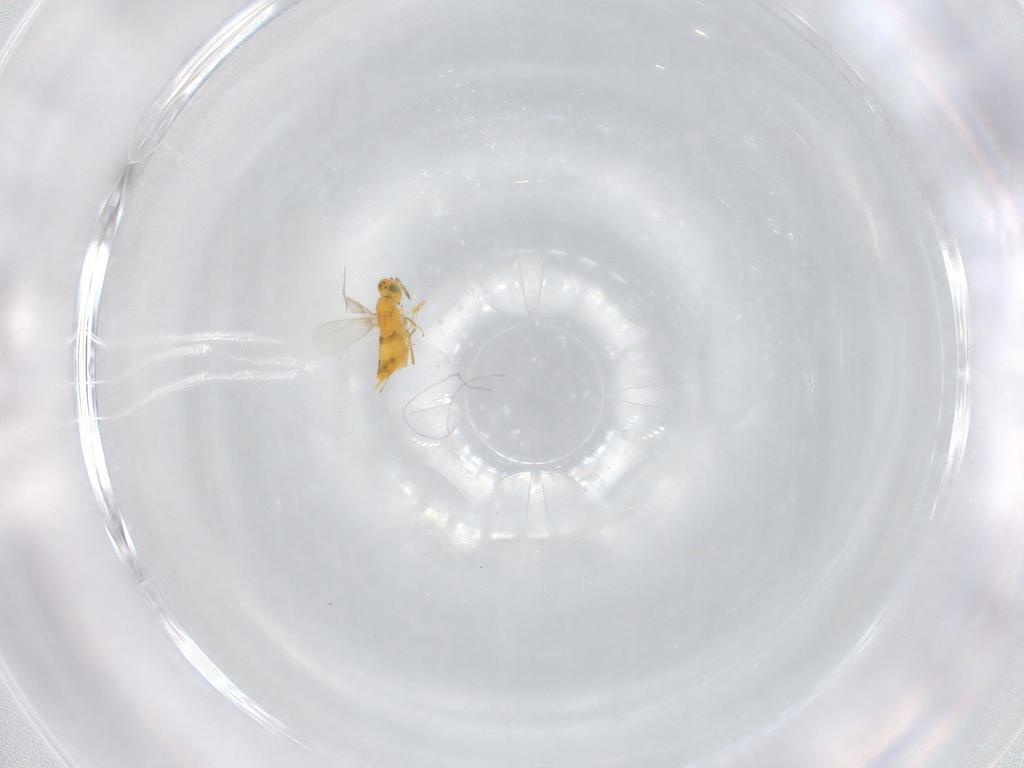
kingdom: Animalia
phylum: Arthropoda
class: Insecta
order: Hymenoptera
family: Aphelinidae
